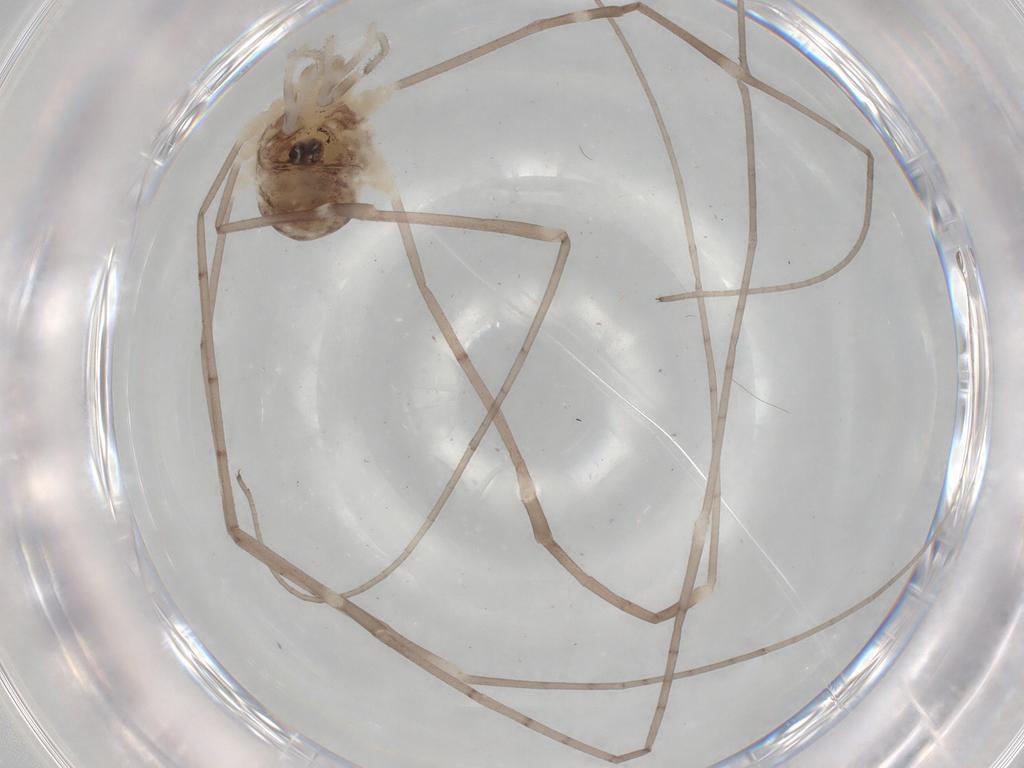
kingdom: Animalia
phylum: Arthropoda
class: Arachnida
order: Opiliones
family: Sclerosomatidae
